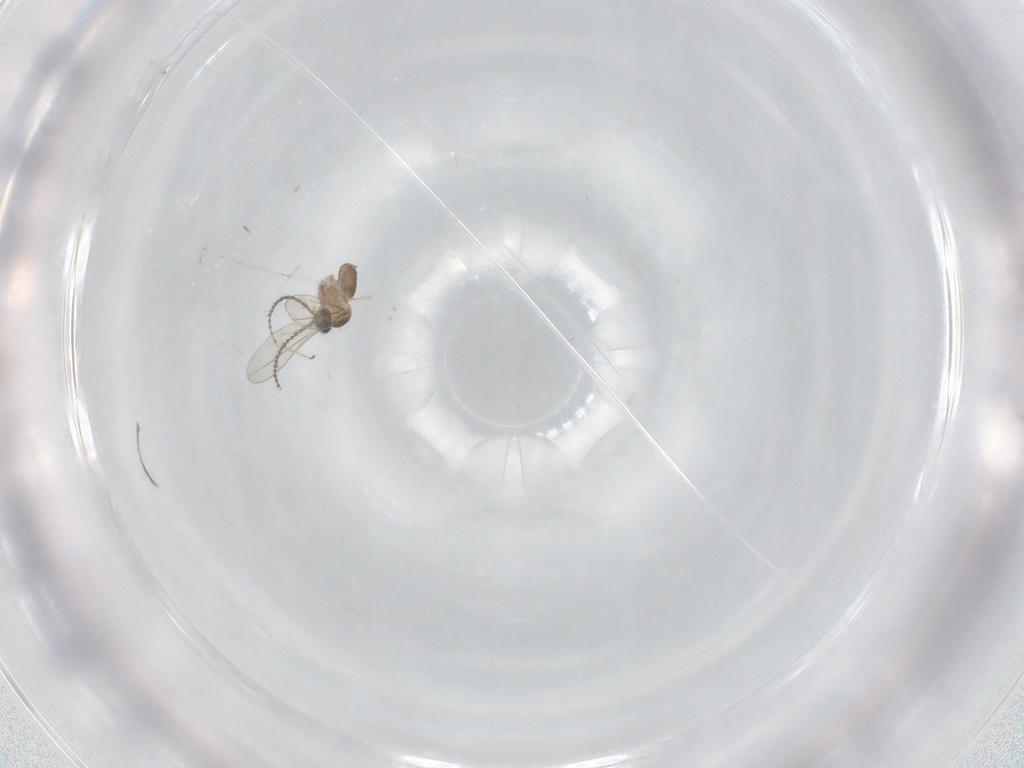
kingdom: Animalia
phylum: Arthropoda
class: Insecta
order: Diptera
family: Cecidomyiidae
